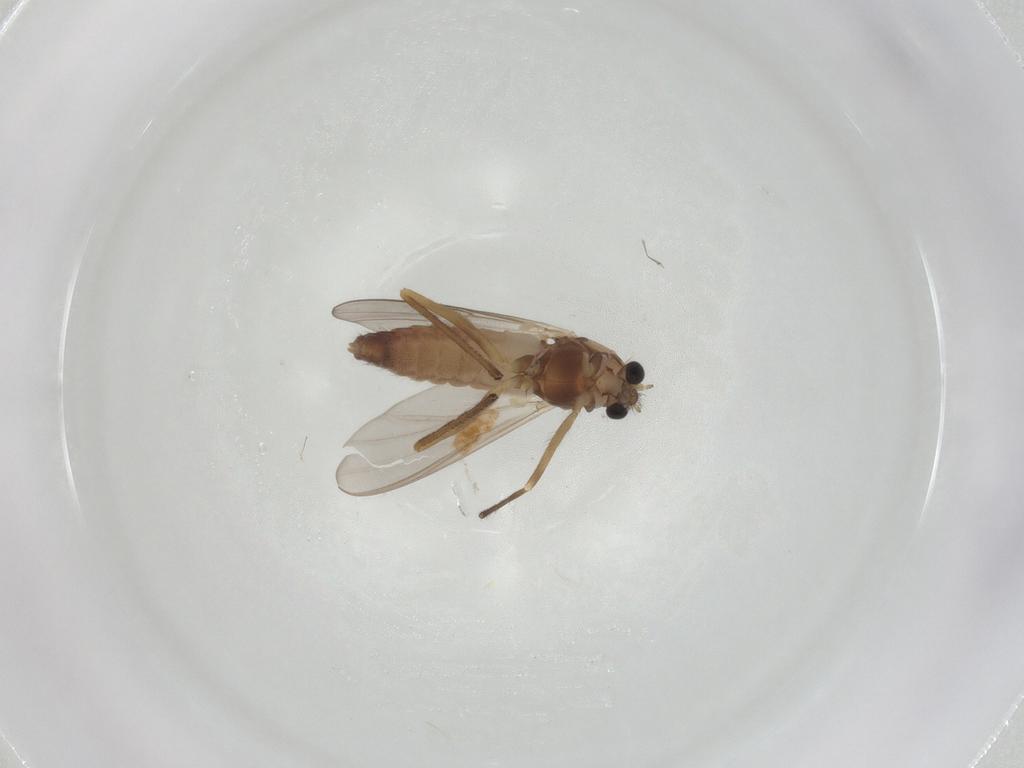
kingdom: Animalia
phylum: Arthropoda
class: Insecta
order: Diptera
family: Chironomidae
